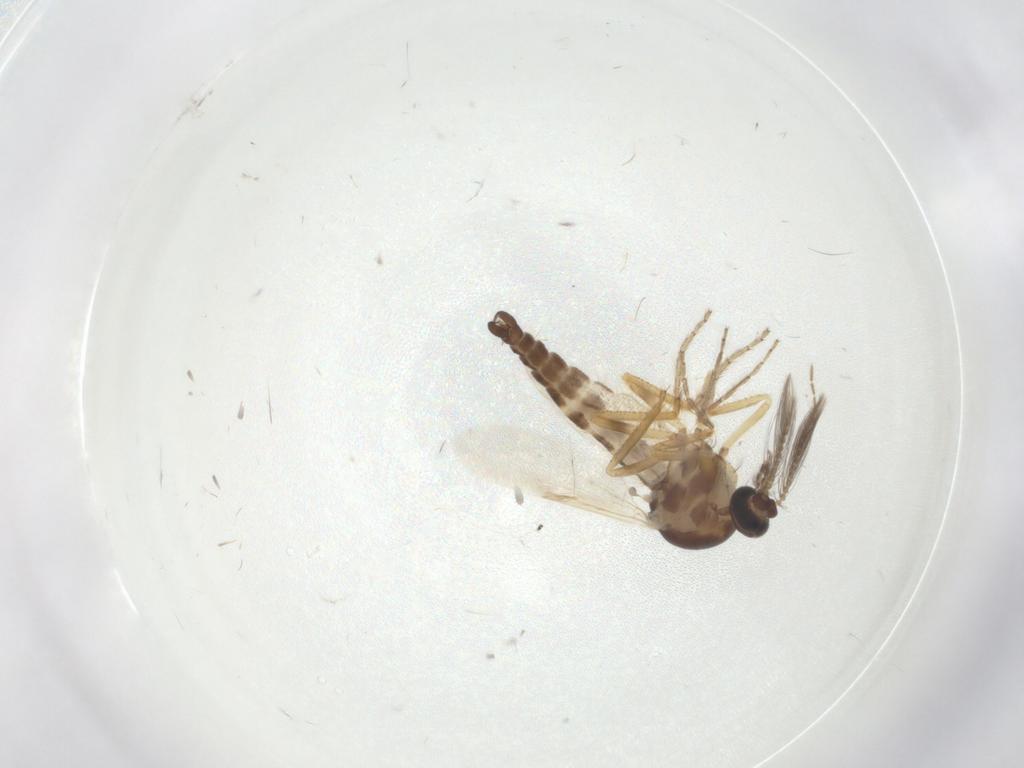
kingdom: Animalia
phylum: Arthropoda
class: Insecta
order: Diptera
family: Ceratopogonidae
